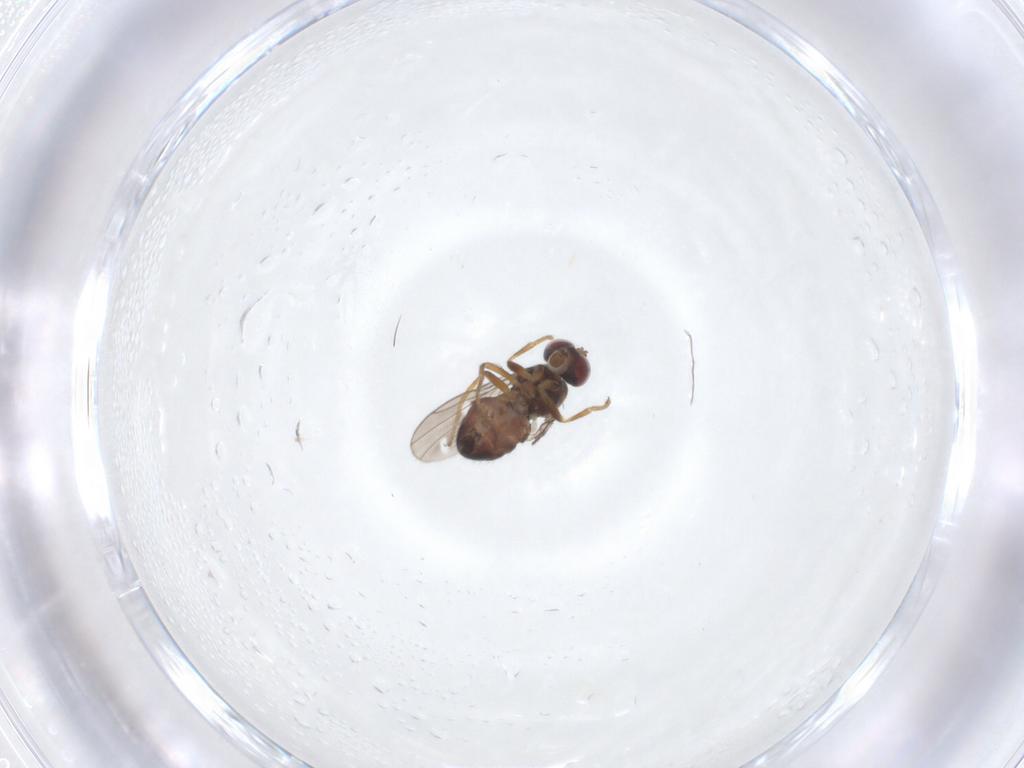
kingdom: Animalia
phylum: Arthropoda
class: Insecta
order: Diptera
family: Ephydridae
